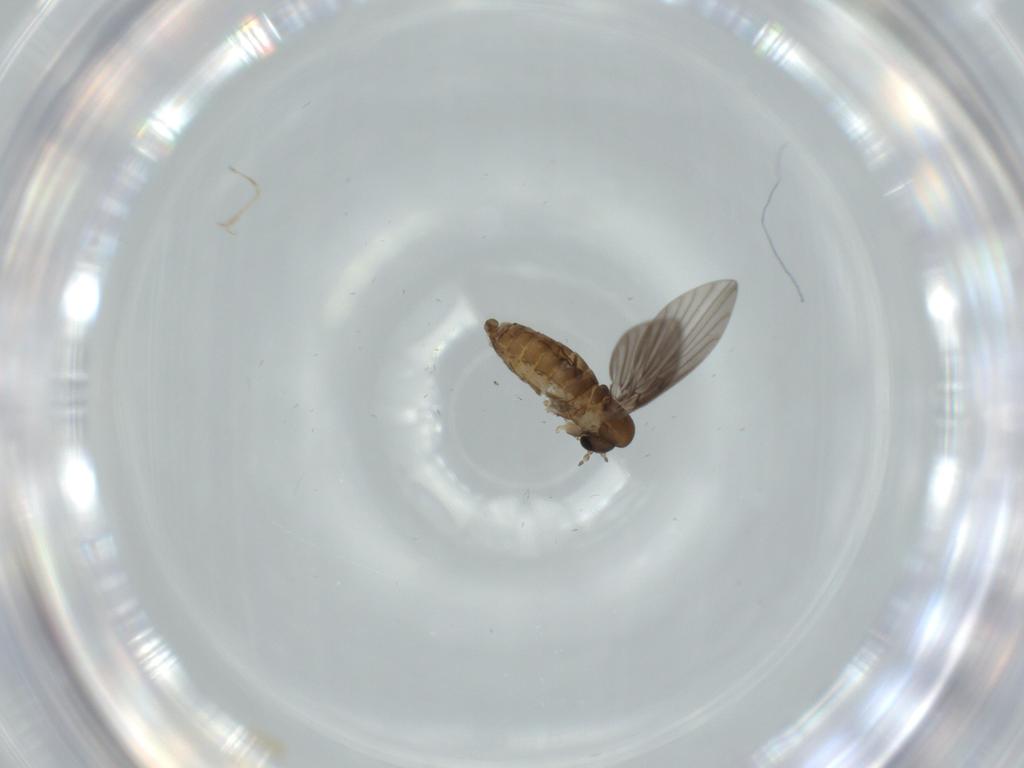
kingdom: Animalia
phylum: Arthropoda
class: Insecta
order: Diptera
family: Psychodidae
